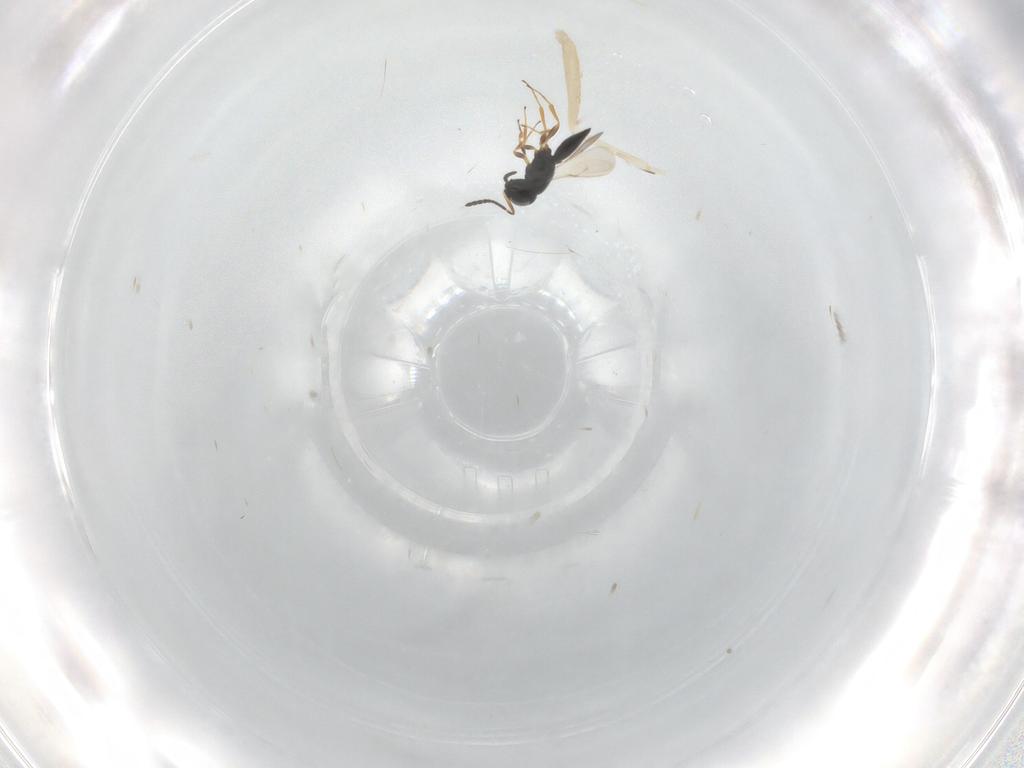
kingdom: Animalia
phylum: Arthropoda
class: Insecta
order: Hymenoptera
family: Scelionidae
